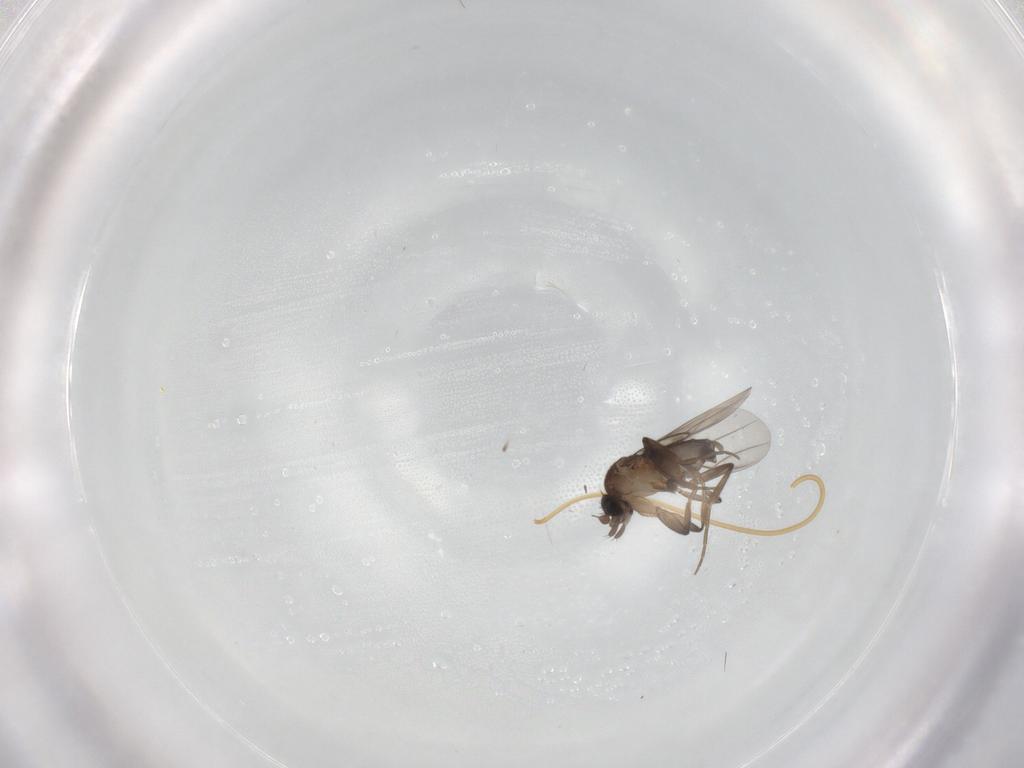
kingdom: Animalia
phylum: Arthropoda
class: Insecta
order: Diptera
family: Phoridae
